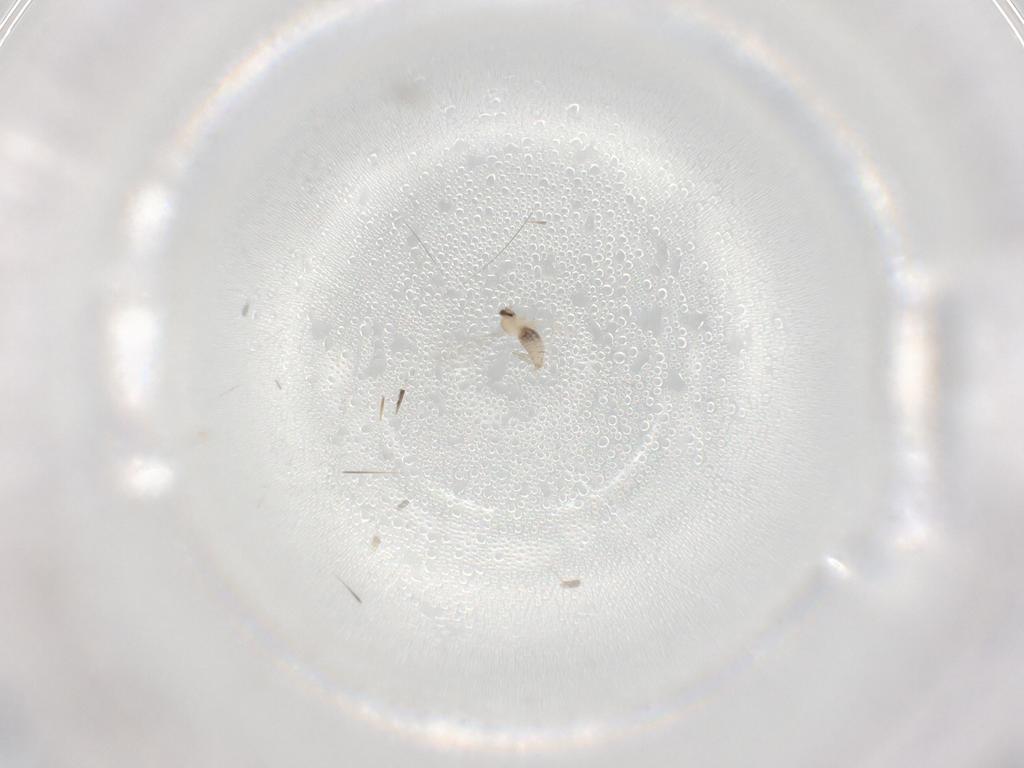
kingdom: Animalia
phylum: Arthropoda
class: Insecta
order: Diptera
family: Cecidomyiidae
